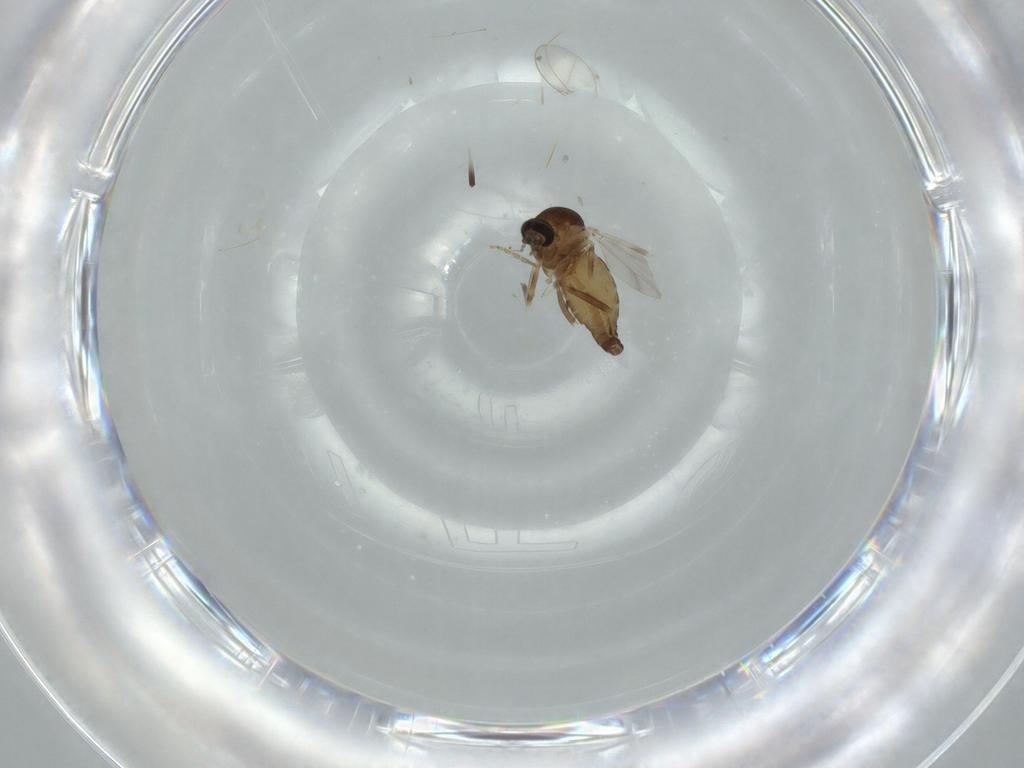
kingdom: Animalia
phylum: Arthropoda
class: Insecta
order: Diptera
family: Ceratopogonidae
